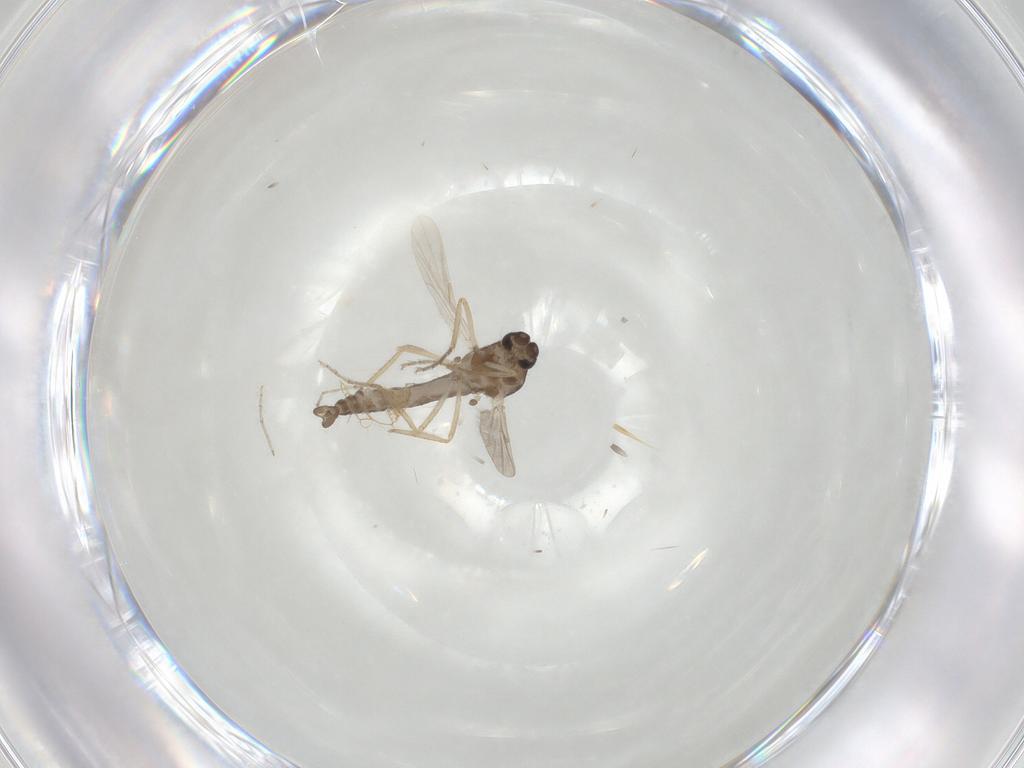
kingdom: Animalia
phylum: Arthropoda
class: Insecta
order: Diptera
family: Ceratopogonidae
